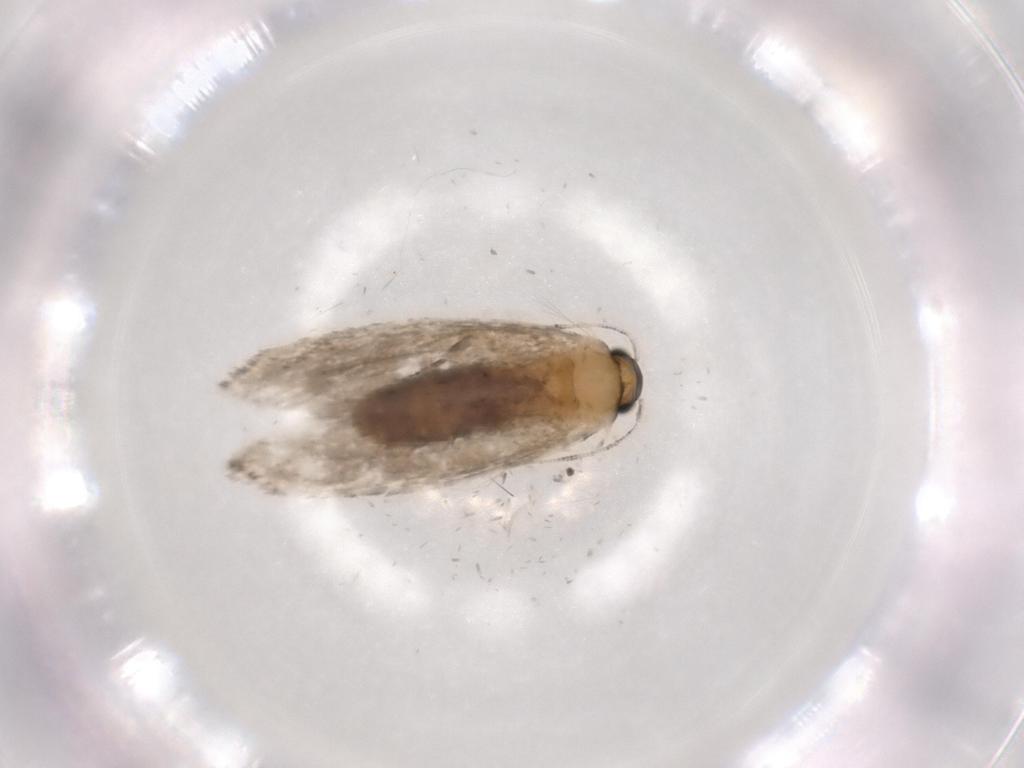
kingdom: Animalia
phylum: Arthropoda
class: Insecta
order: Lepidoptera
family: Tineidae
